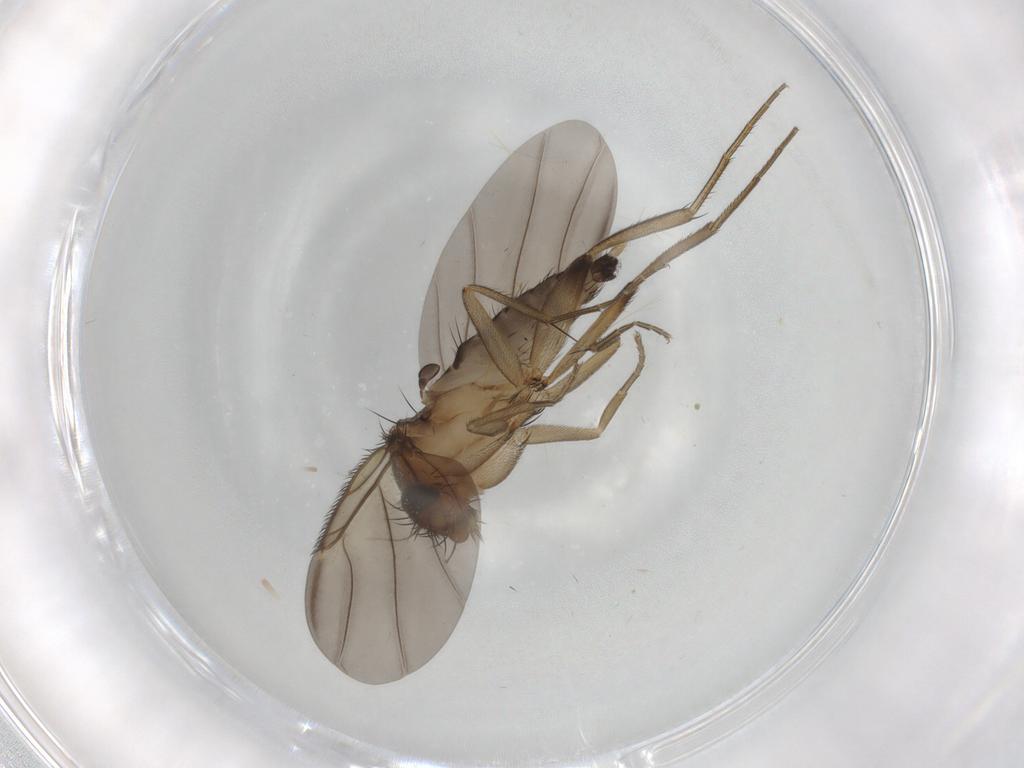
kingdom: Animalia
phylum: Arthropoda
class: Insecta
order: Diptera
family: Phoridae
